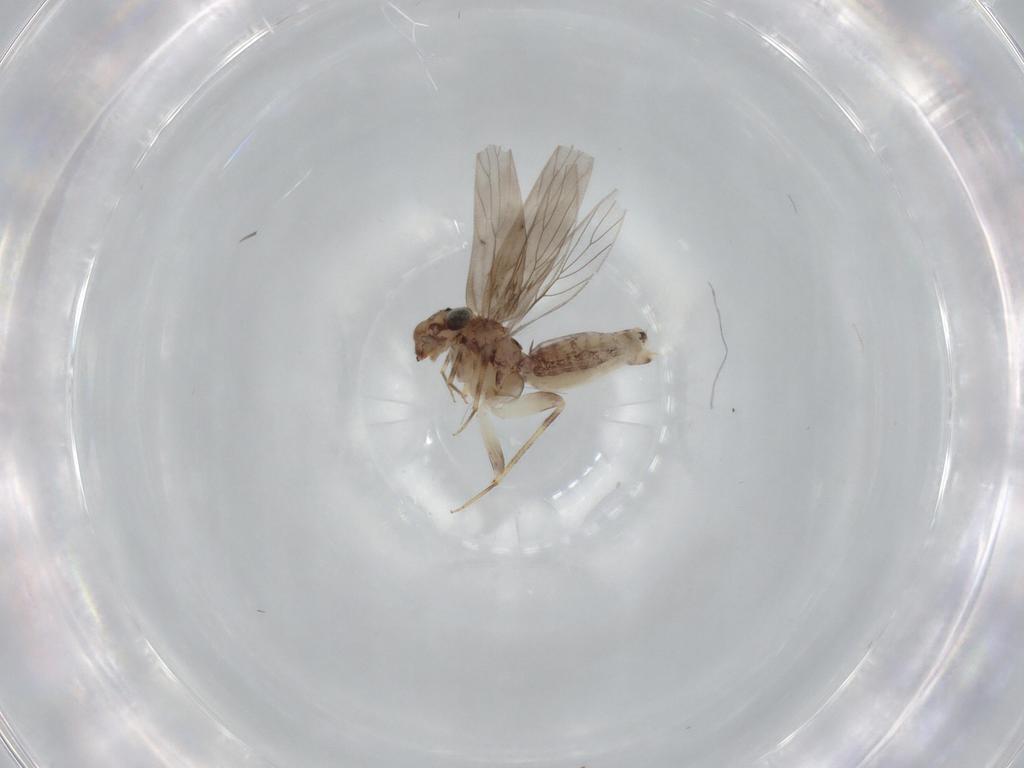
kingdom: Animalia
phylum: Arthropoda
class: Insecta
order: Psocodea
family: Lepidopsocidae
